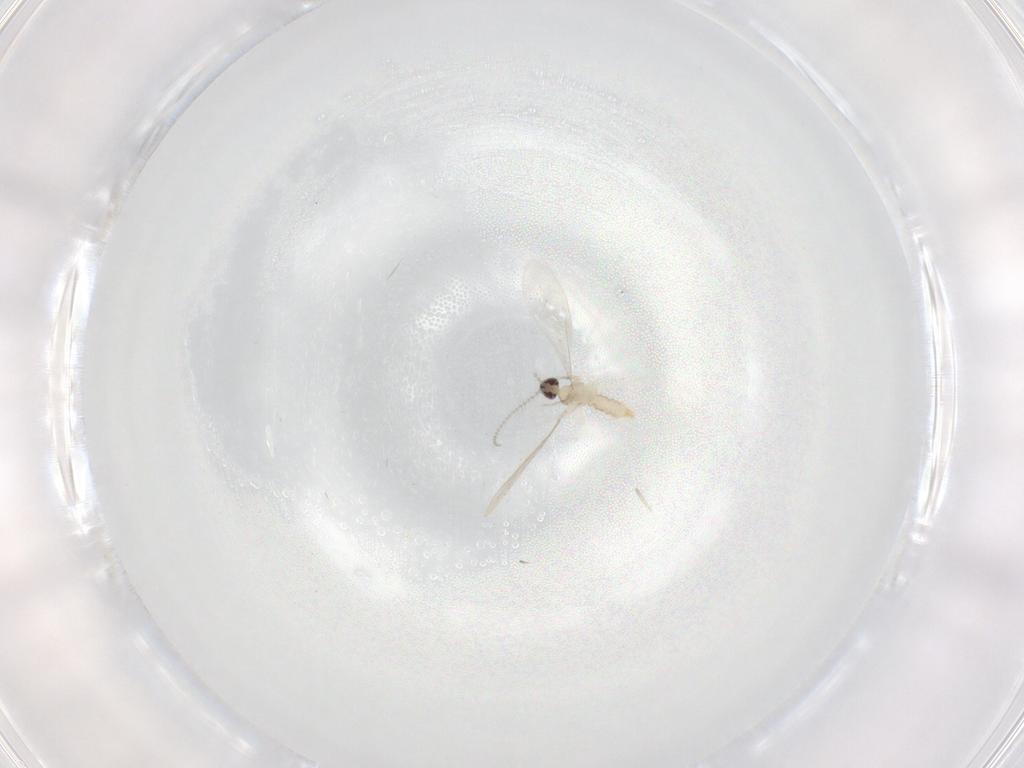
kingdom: Animalia
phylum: Arthropoda
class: Insecta
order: Diptera
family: Cecidomyiidae
